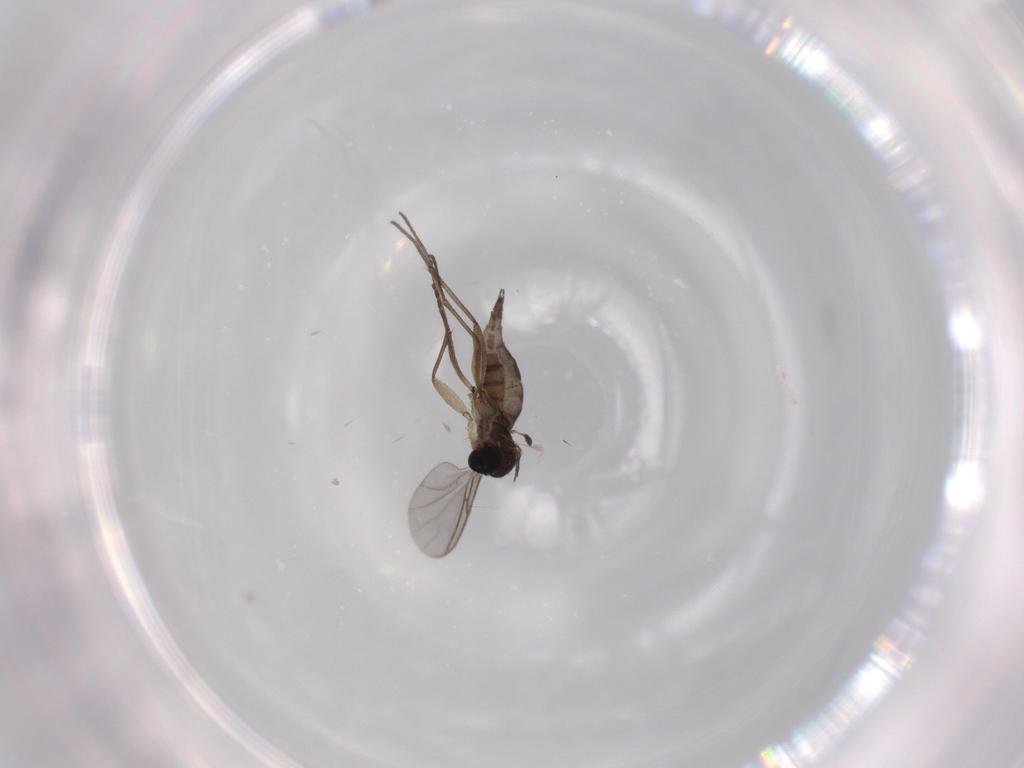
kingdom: Animalia
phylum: Arthropoda
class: Insecta
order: Diptera
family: Sciaridae
